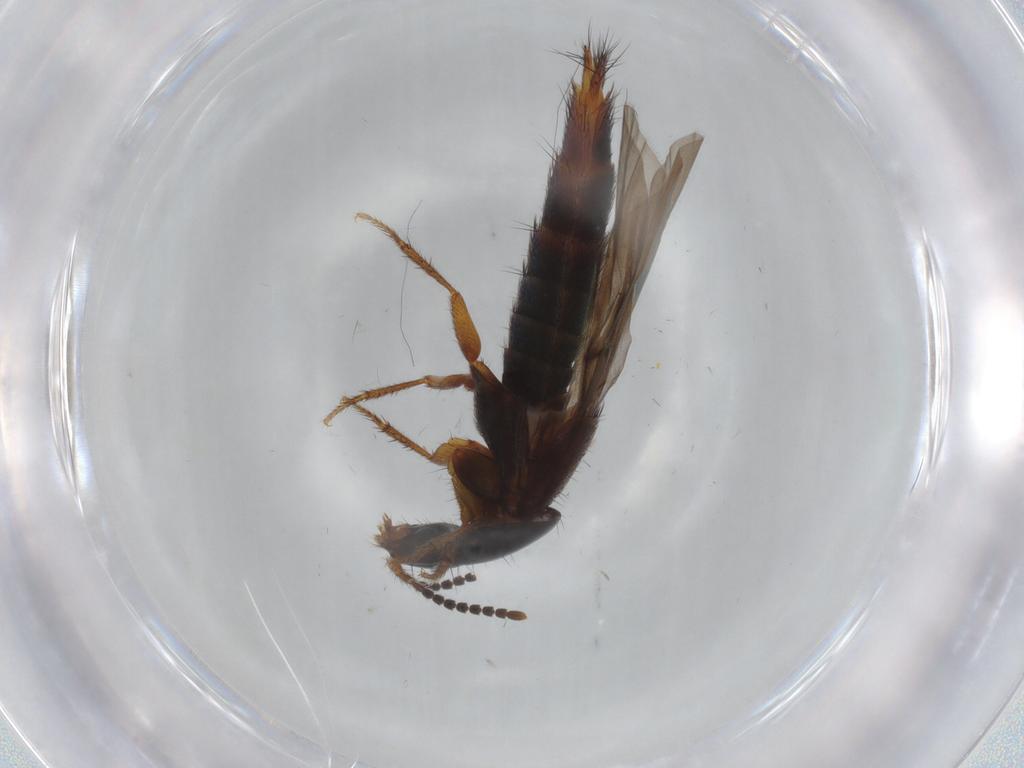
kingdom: Animalia
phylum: Arthropoda
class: Insecta
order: Coleoptera
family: Staphylinidae
